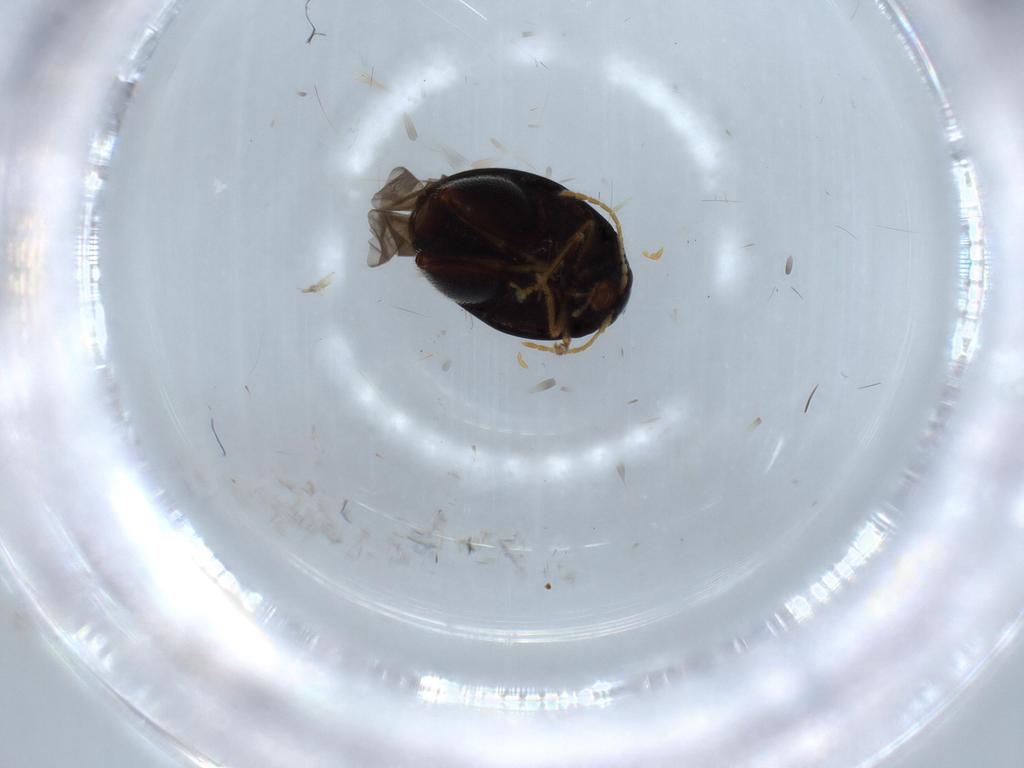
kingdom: Animalia
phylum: Arthropoda
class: Insecta
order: Coleoptera
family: Chrysomelidae
